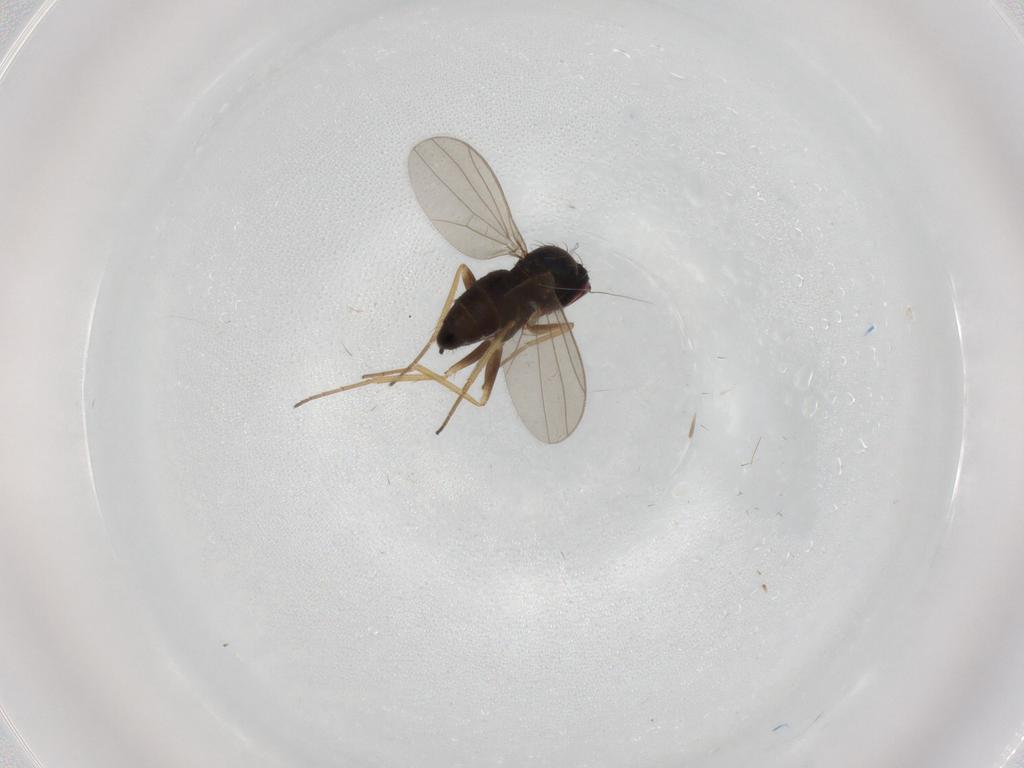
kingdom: Animalia
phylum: Arthropoda
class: Insecta
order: Diptera
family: Dolichopodidae
